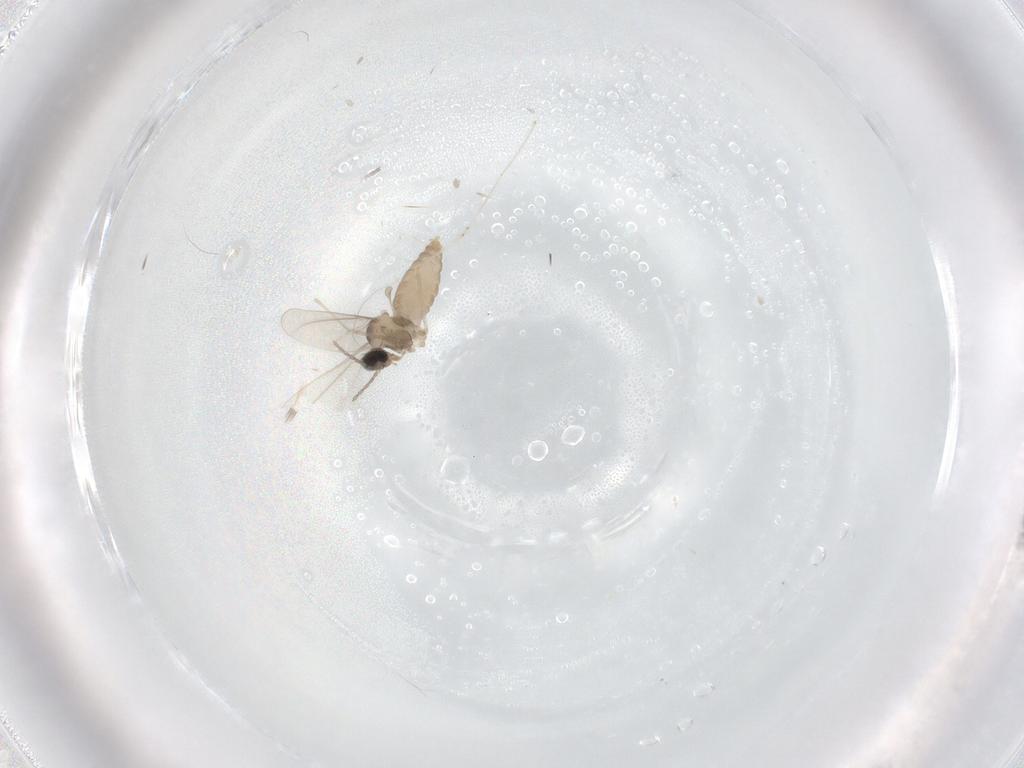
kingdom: Animalia
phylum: Arthropoda
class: Insecta
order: Diptera
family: Cecidomyiidae
